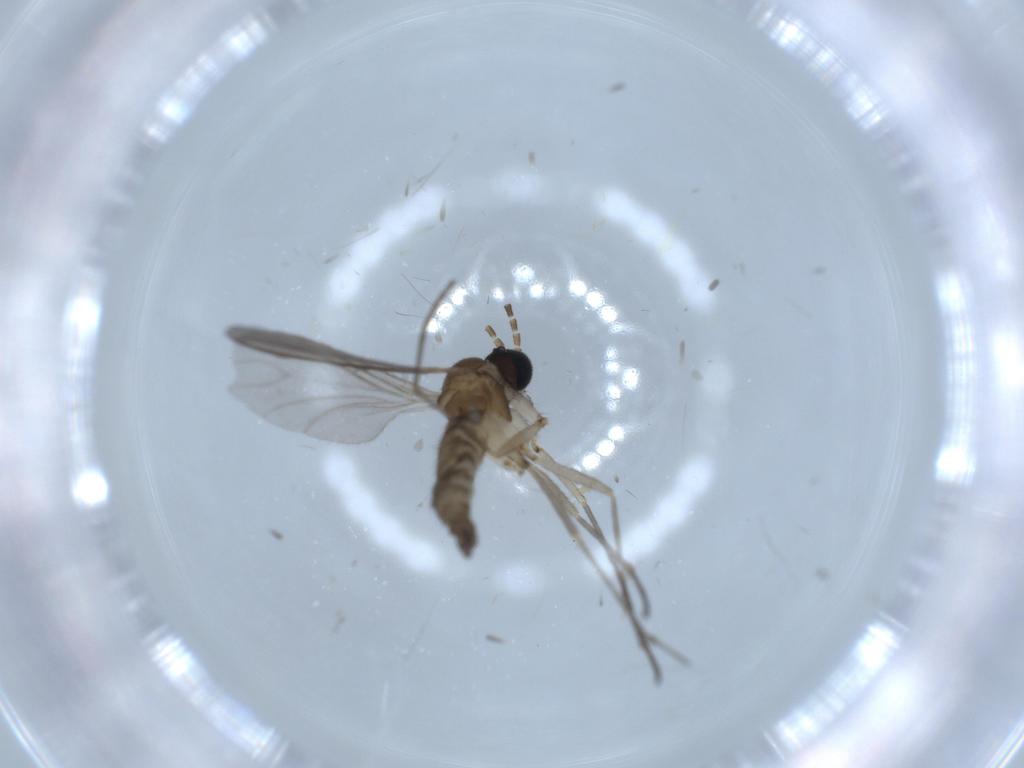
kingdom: Animalia
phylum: Arthropoda
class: Insecta
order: Diptera
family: Sciaridae
